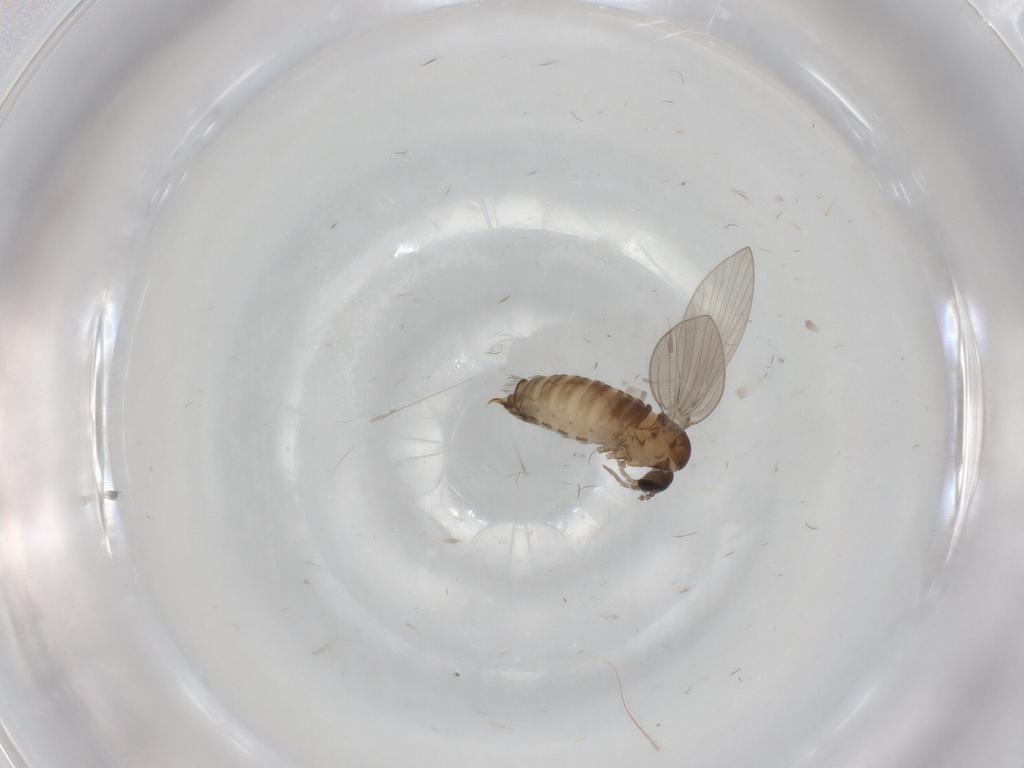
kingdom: Animalia
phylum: Arthropoda
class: Insecta
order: Diptera
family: Psychodidae
